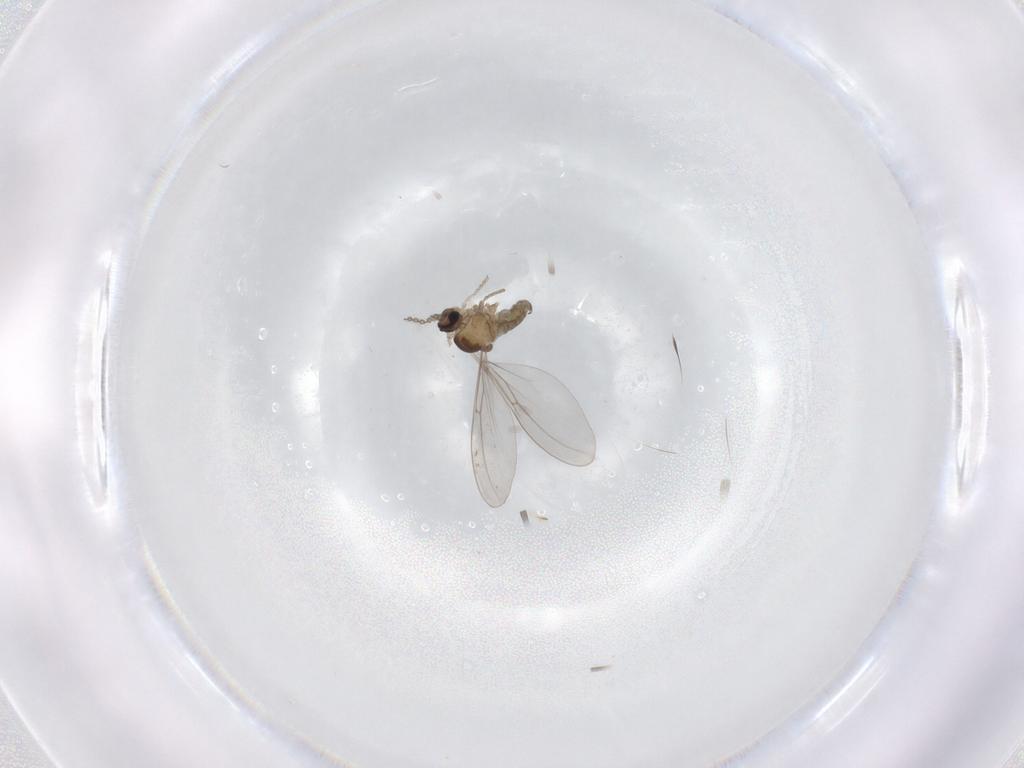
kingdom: Animalia
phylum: Arthropoda
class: Insecta
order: Diptera
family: Cecidomyiidae
